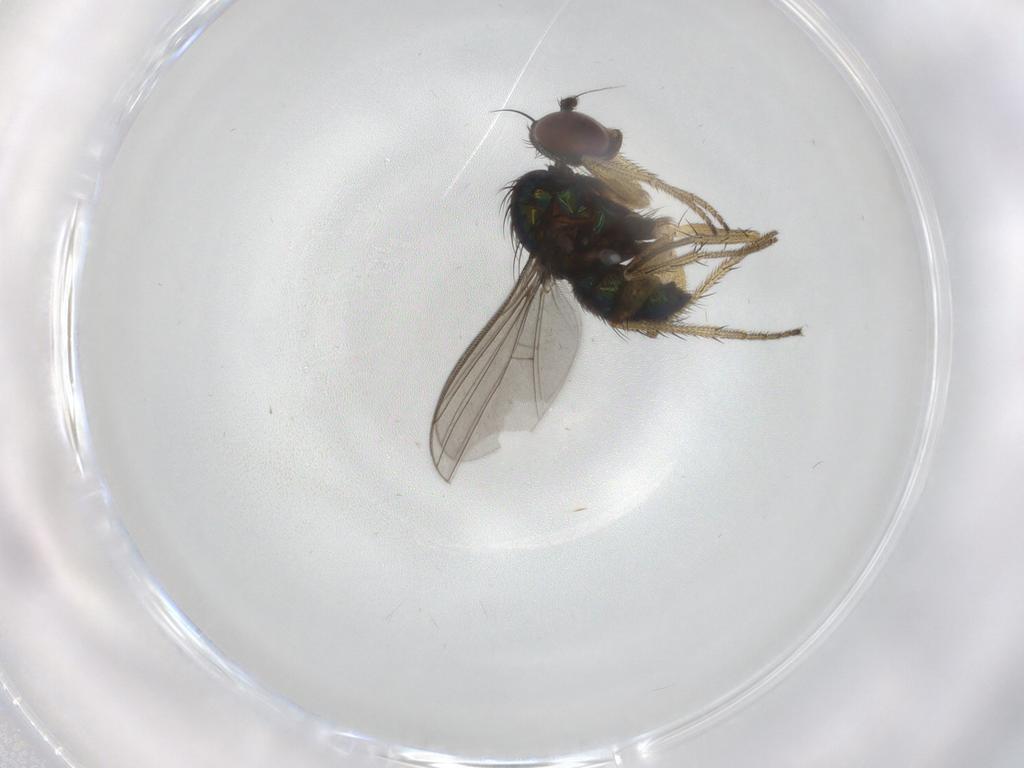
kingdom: Animalia
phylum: Arthropoda
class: Insecta
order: Diptera
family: Dolichopodidae
